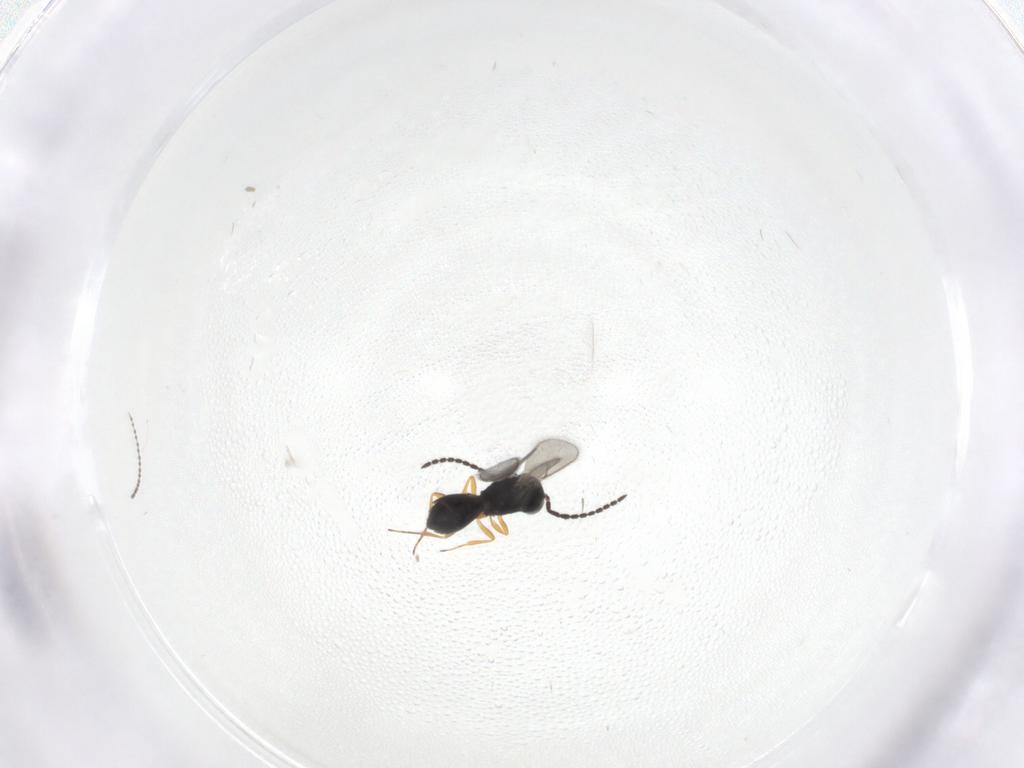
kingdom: Animalia
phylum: Arthropoda
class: Insecta
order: Hymenoptera
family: Scelionidae
